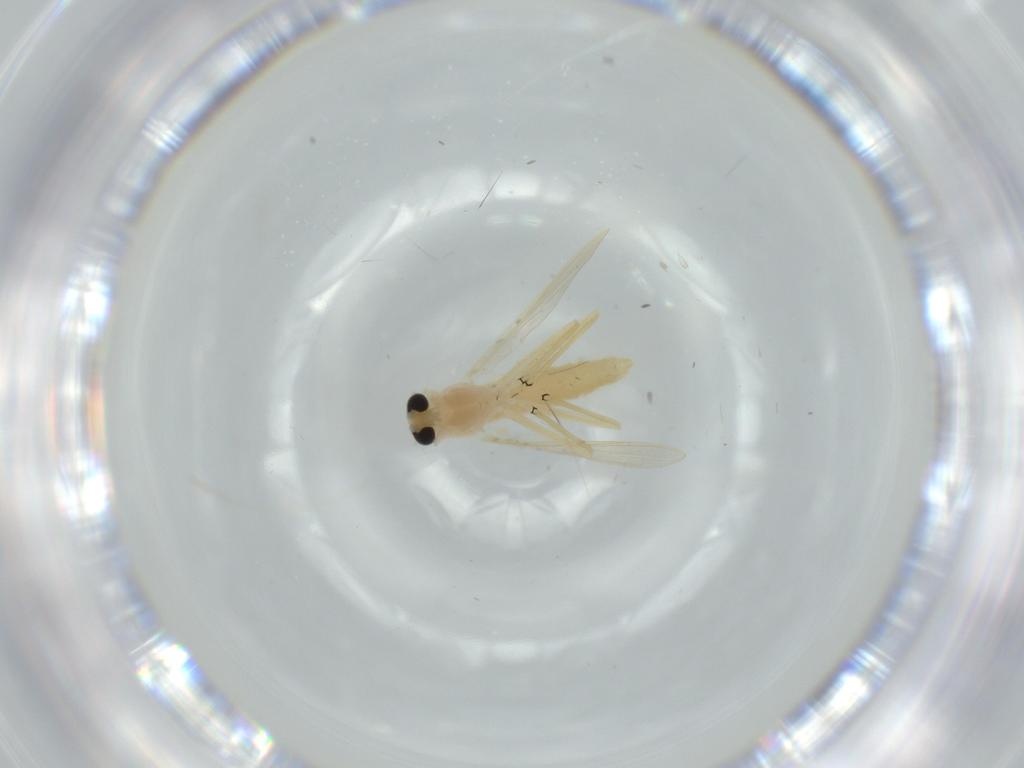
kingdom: Animalia
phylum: Arthropoda
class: Insecta
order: Diptera
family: Chironomidae
